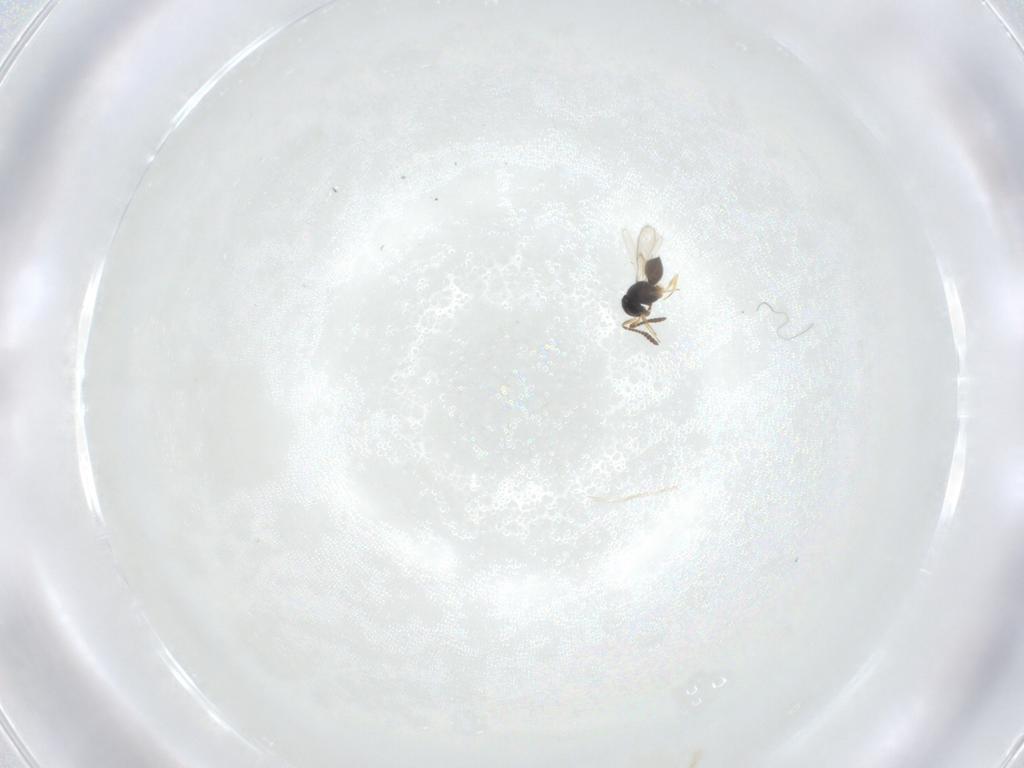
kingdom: Animalia
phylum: Arthropoda
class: Insecta
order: Hymenoptera
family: Scelionidae
